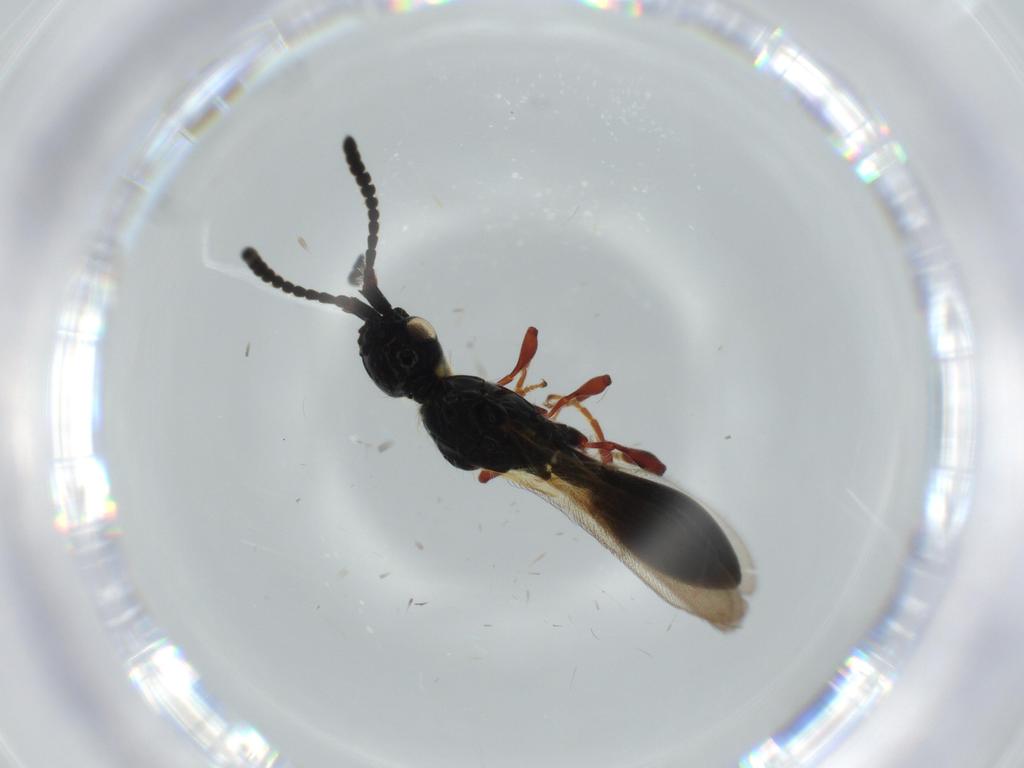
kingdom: Animalia
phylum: Arthropoda
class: Insecta
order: Hymenoptera
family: Diapriidae
